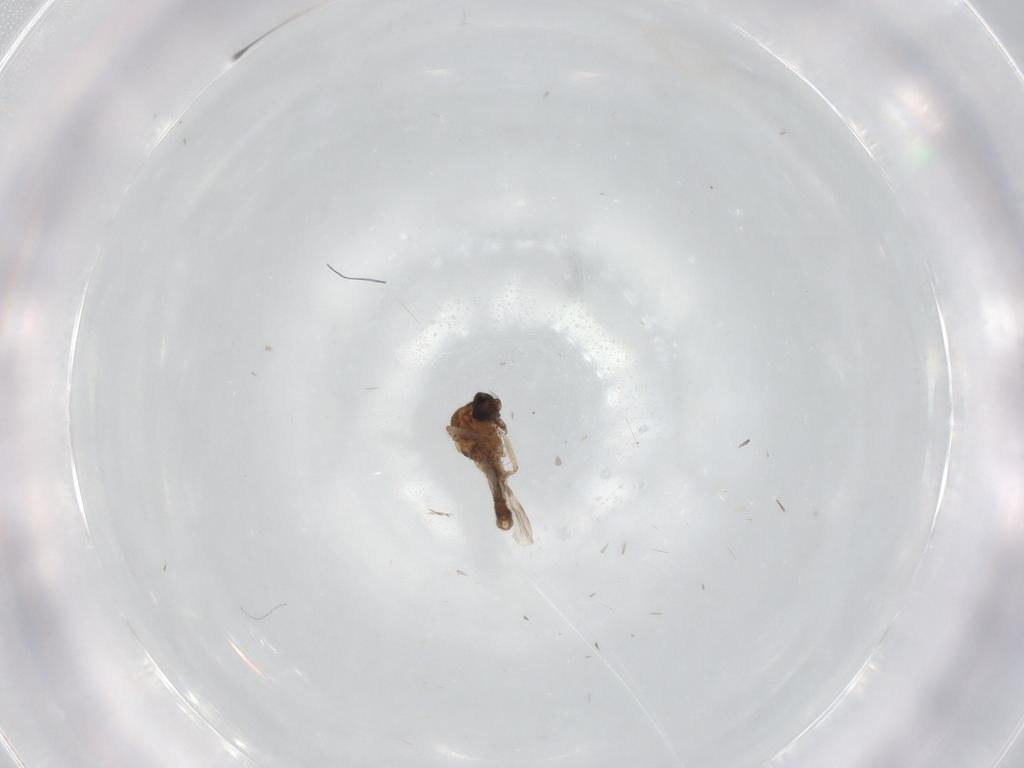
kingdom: Animalia
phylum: Arthropoda
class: Insecta
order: Diptera
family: Ceratopogonidae
